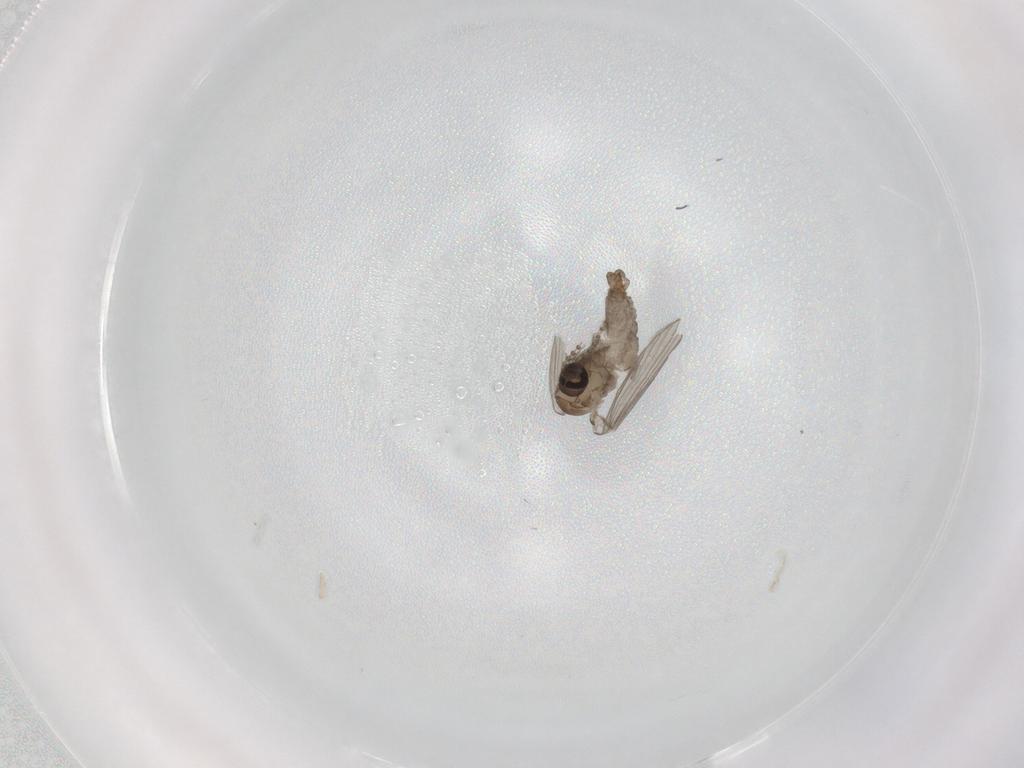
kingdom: Animalia
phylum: Arthropoda
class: Insecta
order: Diptera
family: Psychodidae
